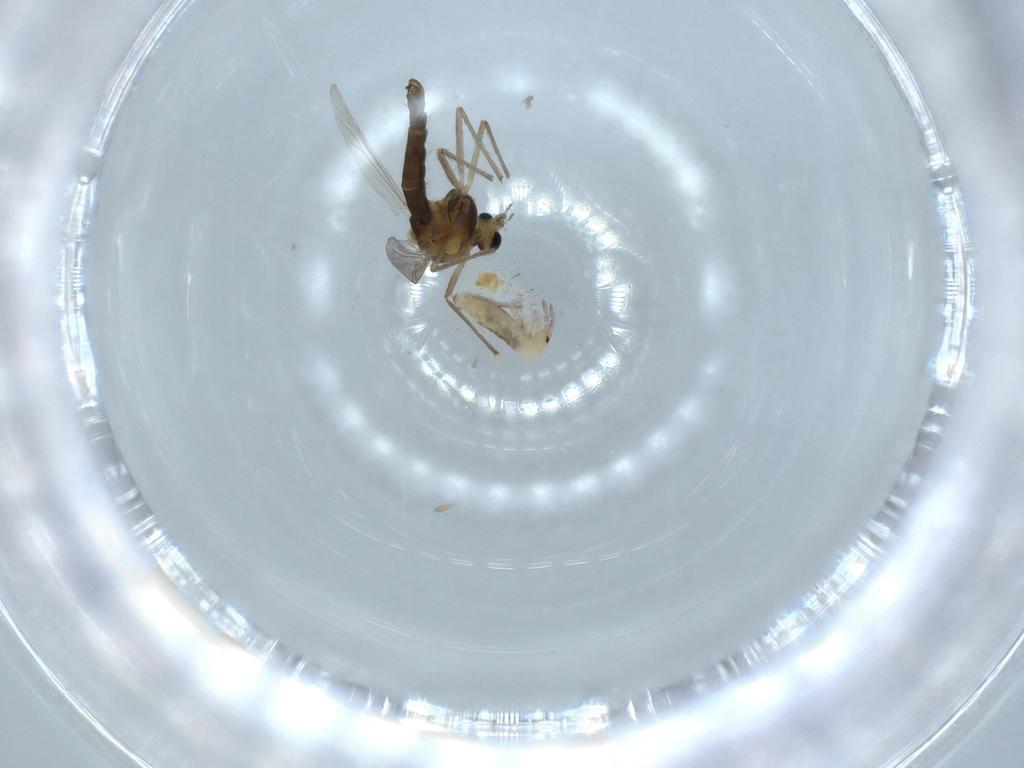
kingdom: Animalia
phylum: Arthropoda
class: Insecta
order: Diptera
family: Chironomidae
